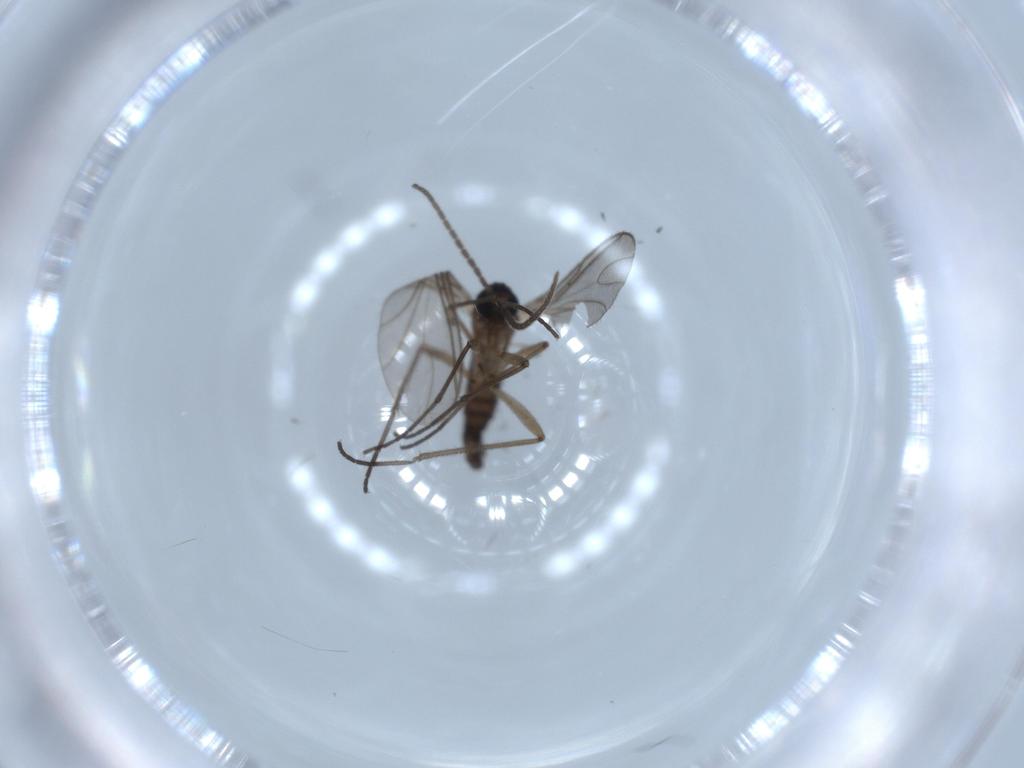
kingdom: Animalia
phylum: Arthropoda
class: Insecta
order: Diptera
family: Sciaridae
